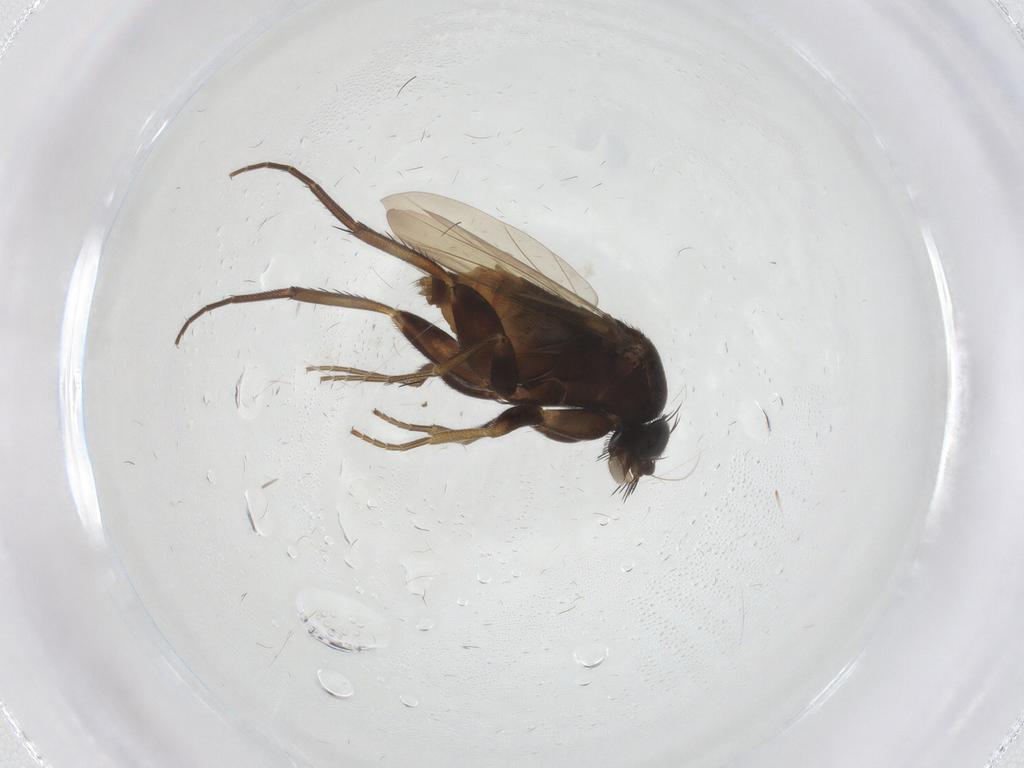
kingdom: Animalia
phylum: Arthropoda
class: Insecta
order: Diptera
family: Phoridae
